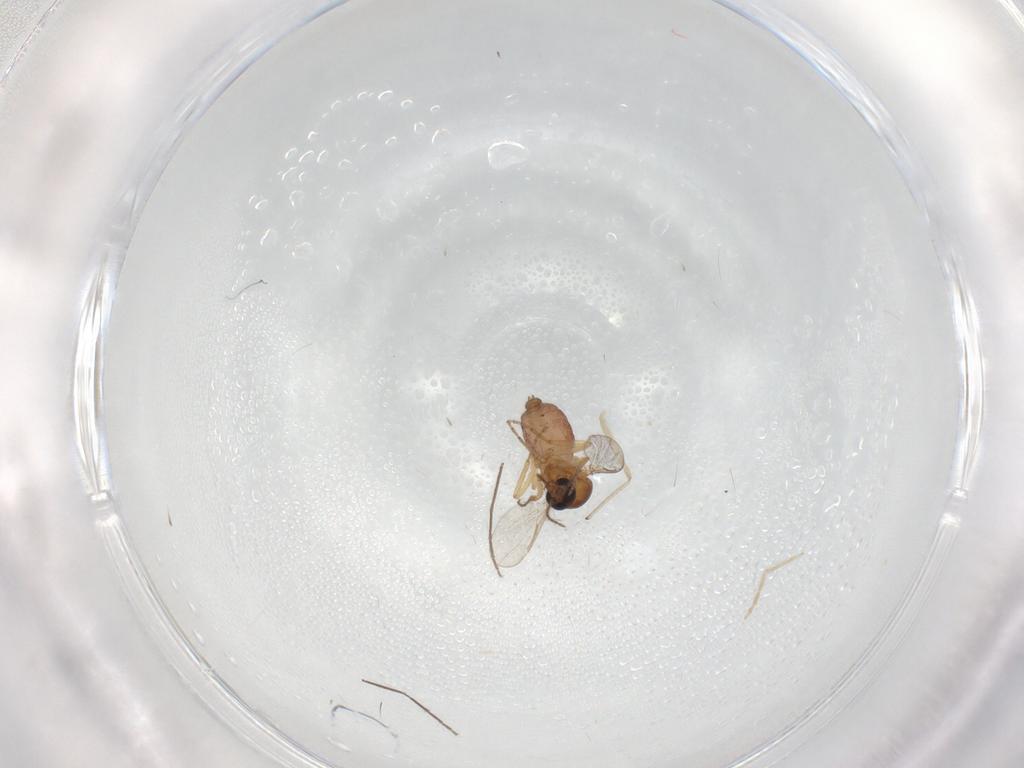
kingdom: Animalia
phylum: Arthropoda
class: Insecta
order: Diptera
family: Chironomidae
